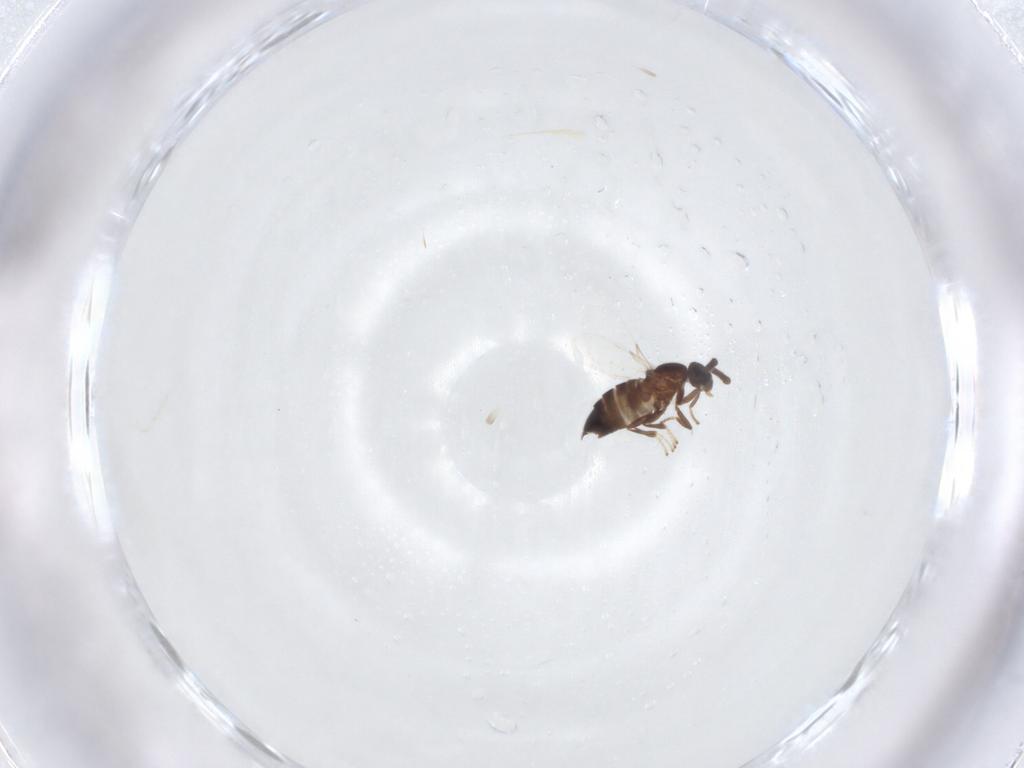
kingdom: Animalia
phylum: Arthropoda
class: Insecta
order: Diptera
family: Scatopsidae
